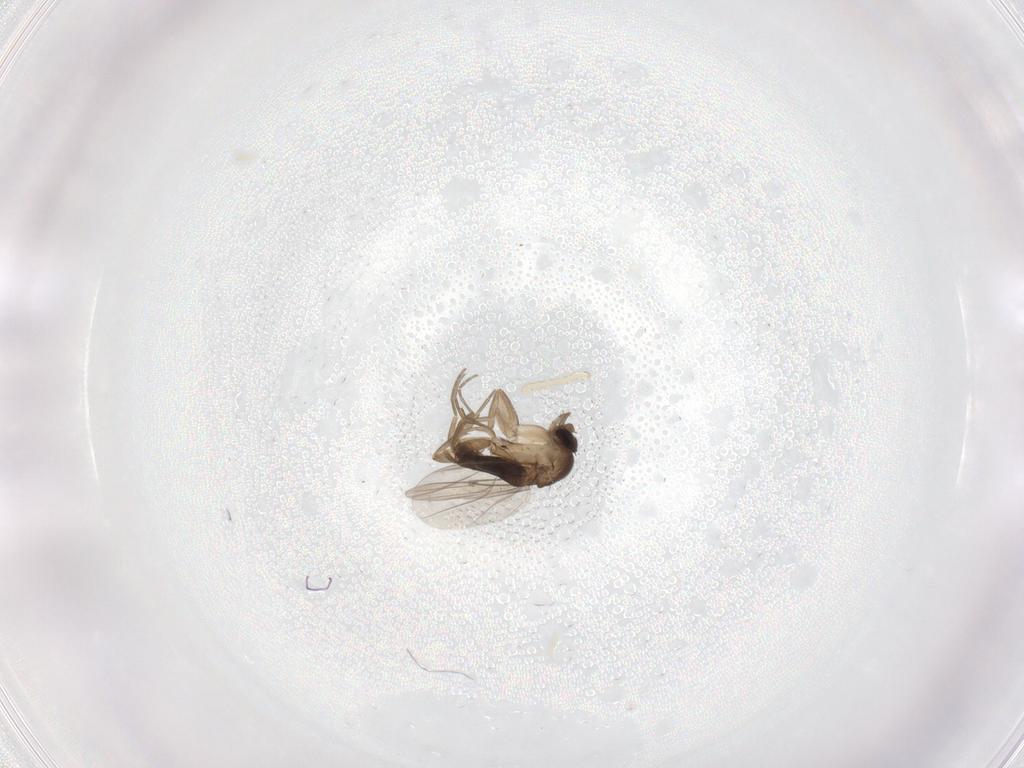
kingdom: Animalia
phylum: Arthropoda
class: Insecta
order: Diptera
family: Phoridae
